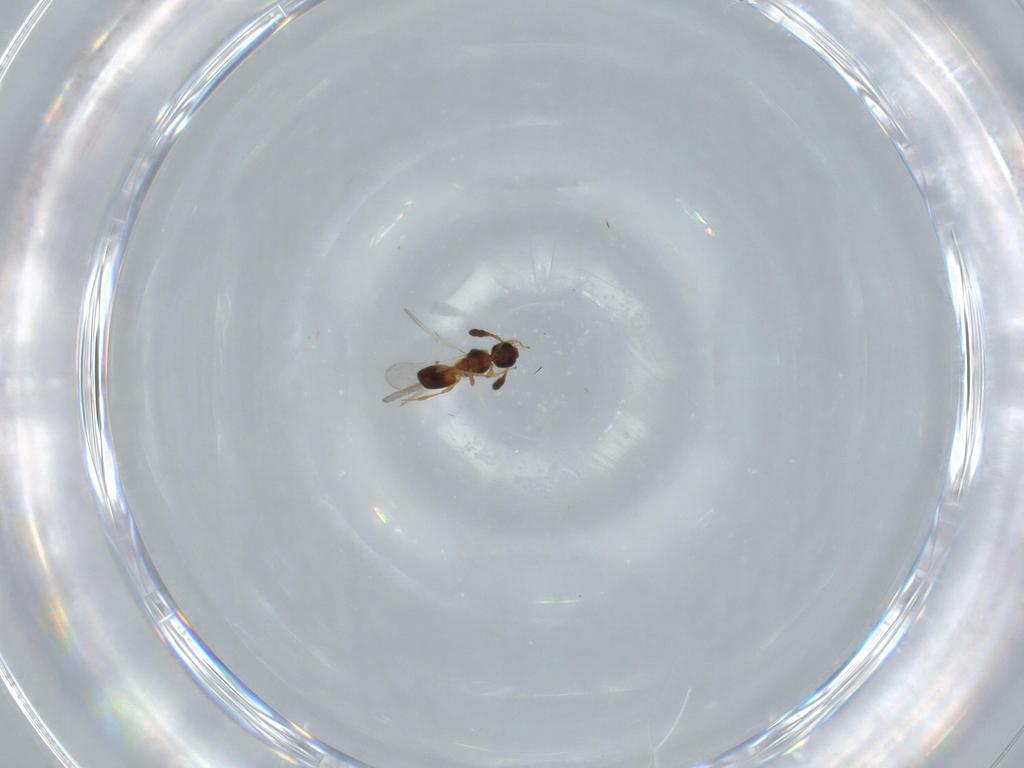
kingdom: Animalia
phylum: Arthropoda
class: Insecta
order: Hymenoptera
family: Diapriidae
